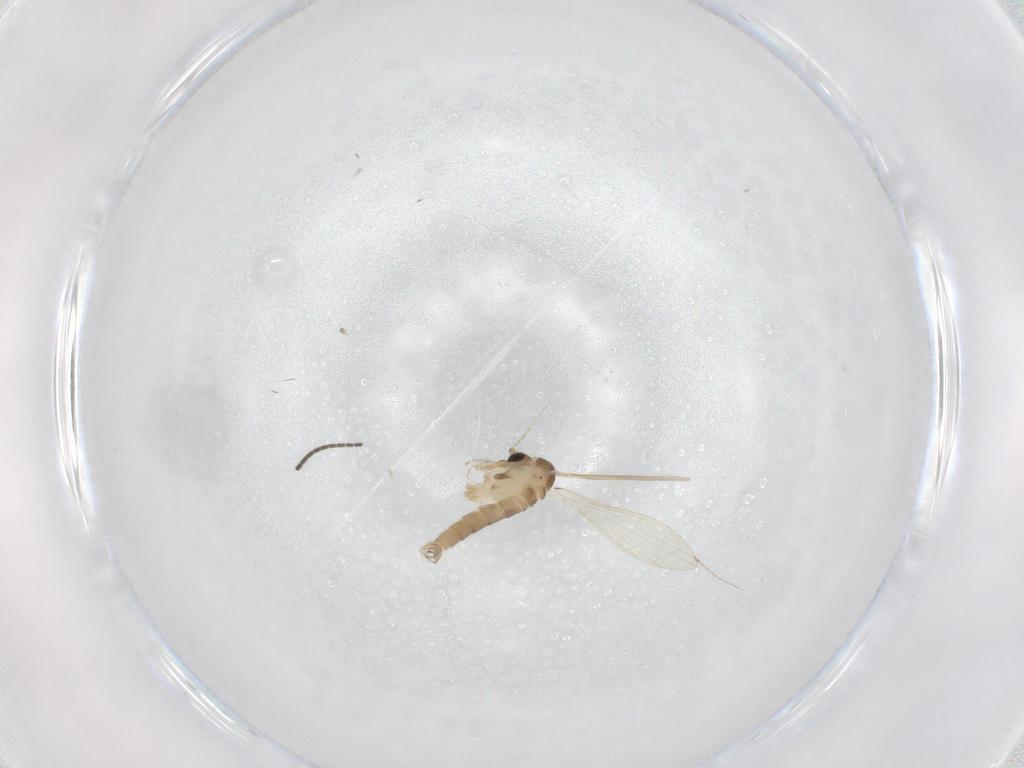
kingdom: Animalia
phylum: Arthropoda
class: Insecta
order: Diptera
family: Psychodidae
